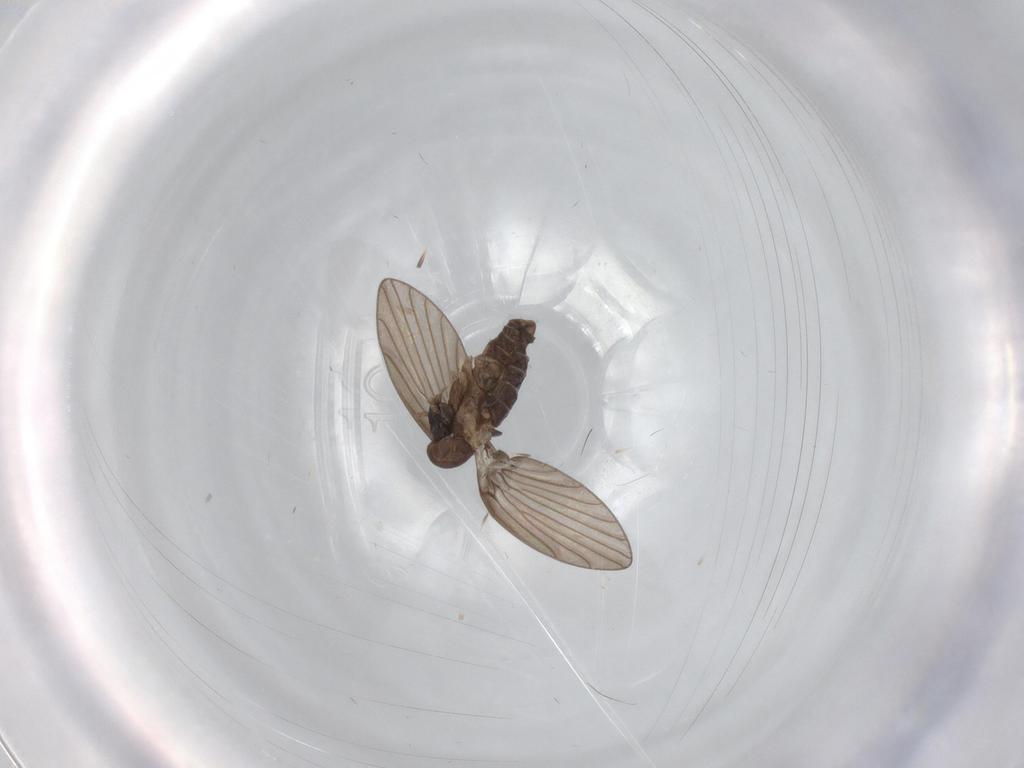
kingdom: Animalia
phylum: Arthropoda
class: Insecta
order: Diptera
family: Psychodidae
